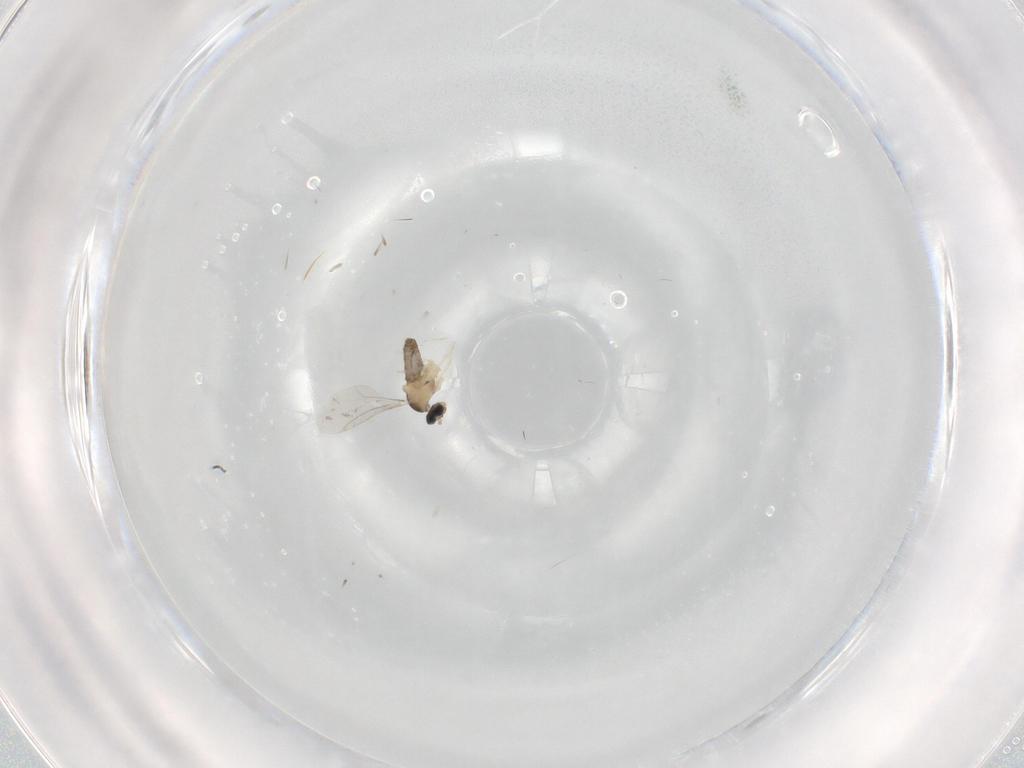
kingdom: Animalia
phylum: Arthropoda
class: Insecta
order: Diptera
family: Cecidomyiidae
